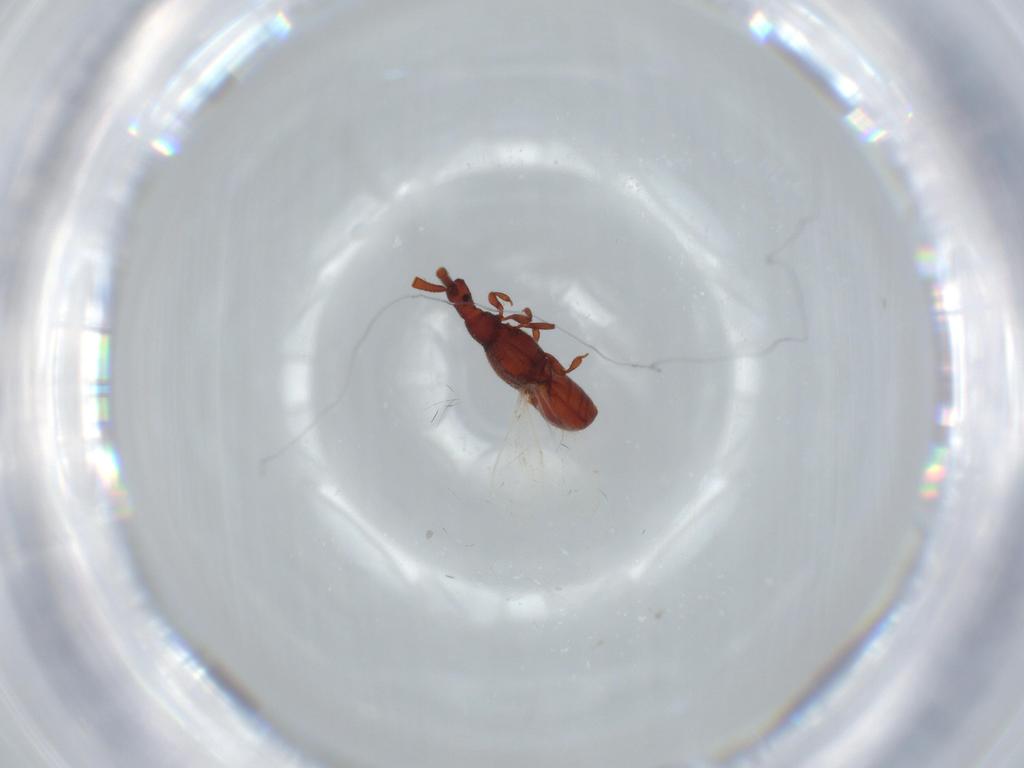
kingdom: Animalia
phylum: Arthropoda
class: Insecta
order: Coleoptera
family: Staphylinidae
